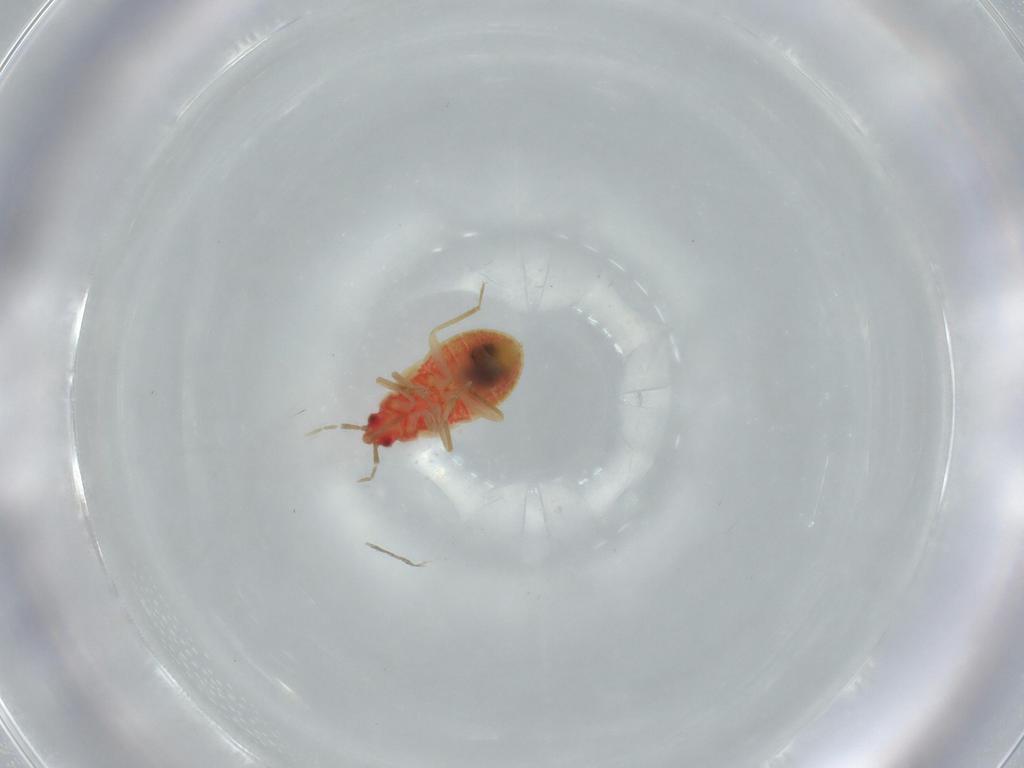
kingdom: Animalia
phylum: Arthropoda
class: Insecta
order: Hemiptera
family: Anthocoridae
